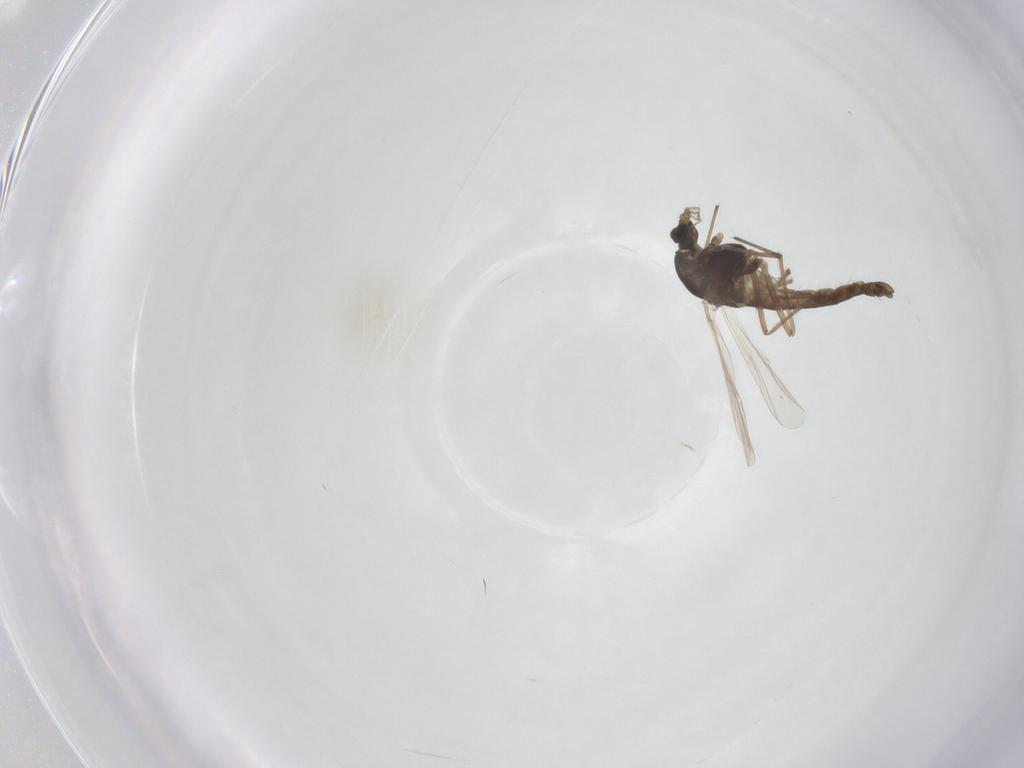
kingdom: Animalia
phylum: Arthropoda
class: Insecta
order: Diptera
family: Chironomidae
